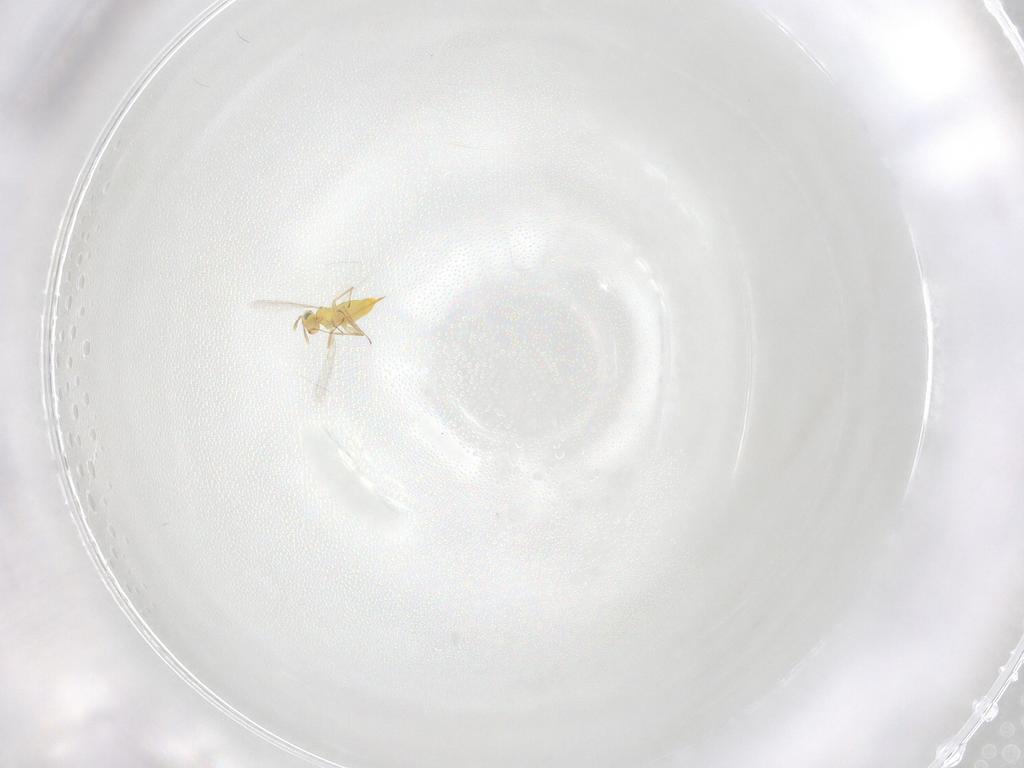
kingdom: Animalia
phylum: Arthropoda
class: Insecta
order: Hymenoptera
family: Aphelinidae
